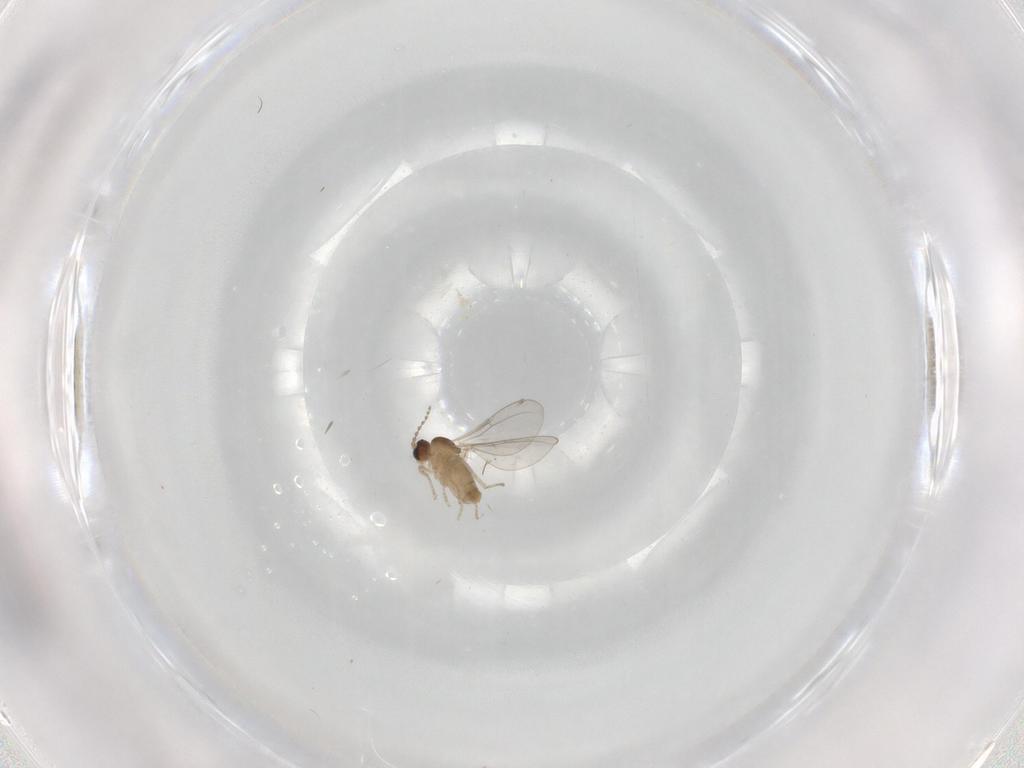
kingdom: Animalia
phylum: Arthropoda
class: Insecta
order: Diptera
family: Cecidomyiidae
